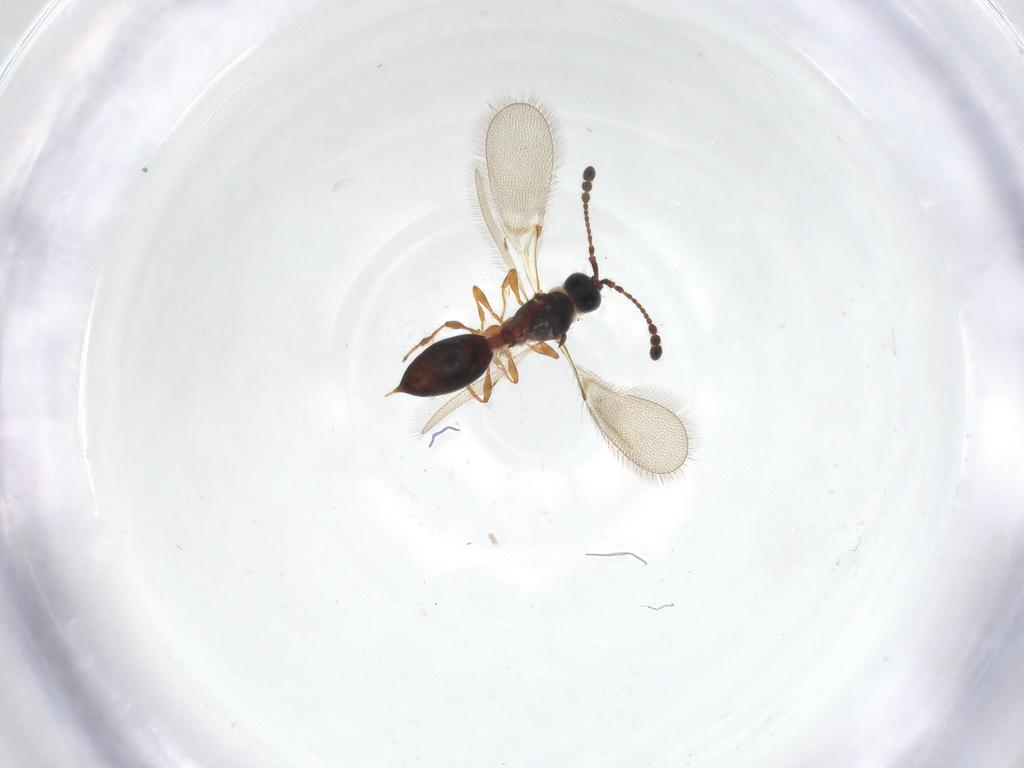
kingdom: Animalia
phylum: Arthropoda
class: Insecta
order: Hymenoptera
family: Diapriidae
